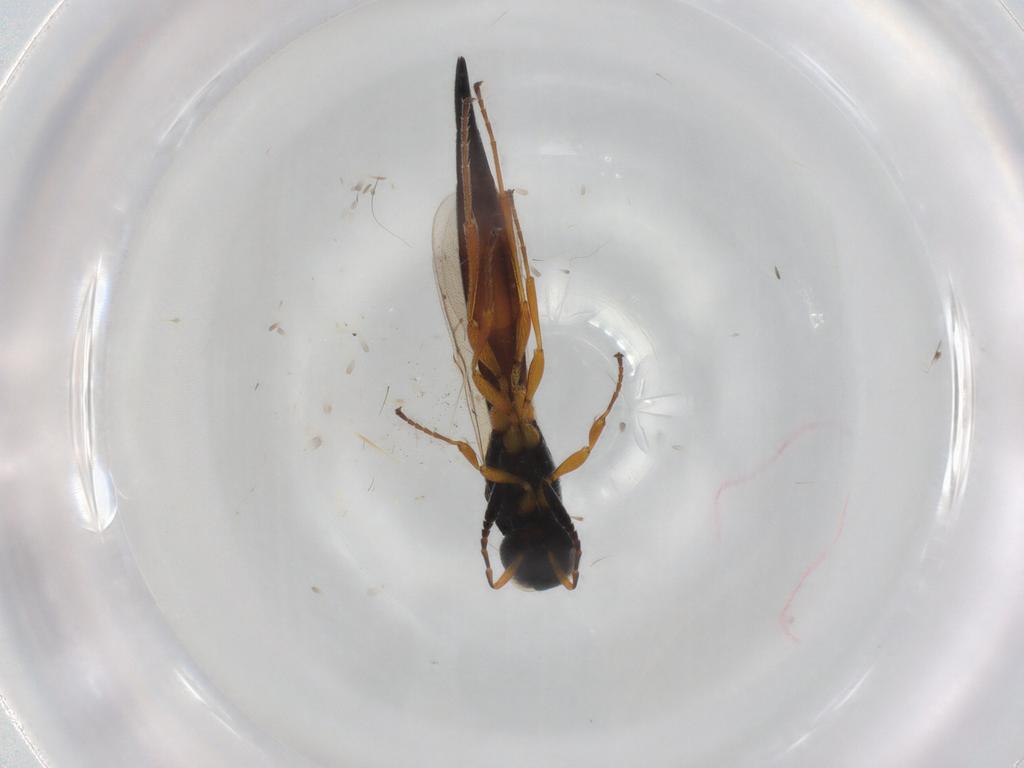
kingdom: Animalia
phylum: Arthropoda
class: Insecta
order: Hymenoptera
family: Scelionidae
